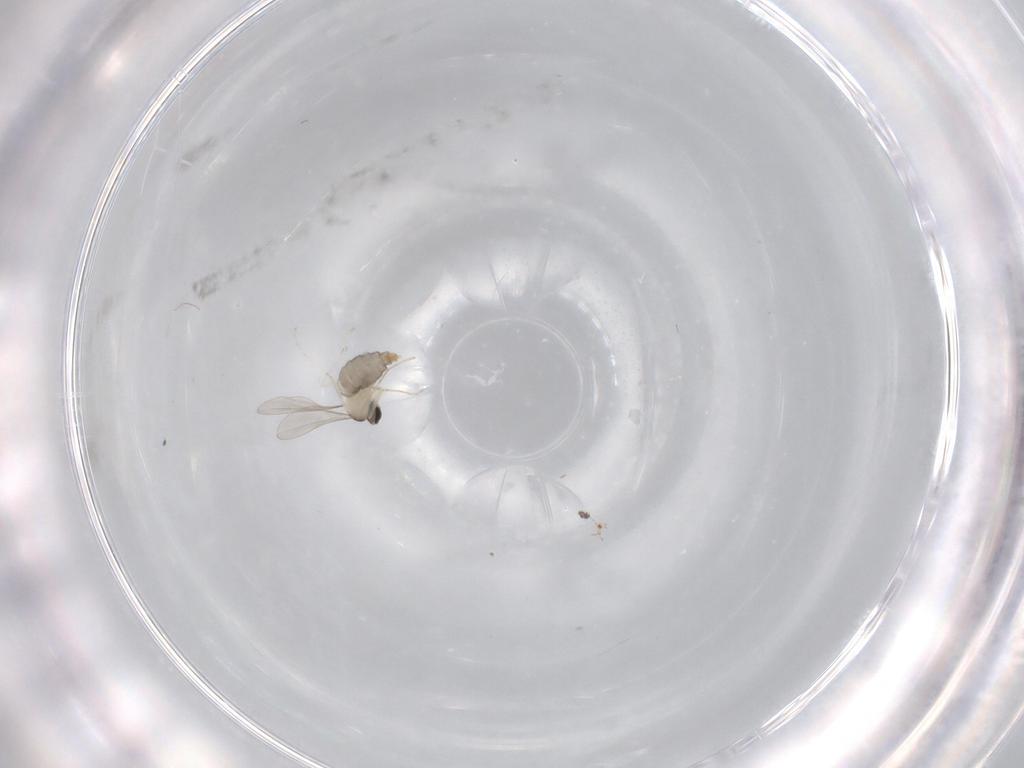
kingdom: Animalia
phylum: Arthropoda
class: Insecta
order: Diptera
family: Cecidomyiidae
